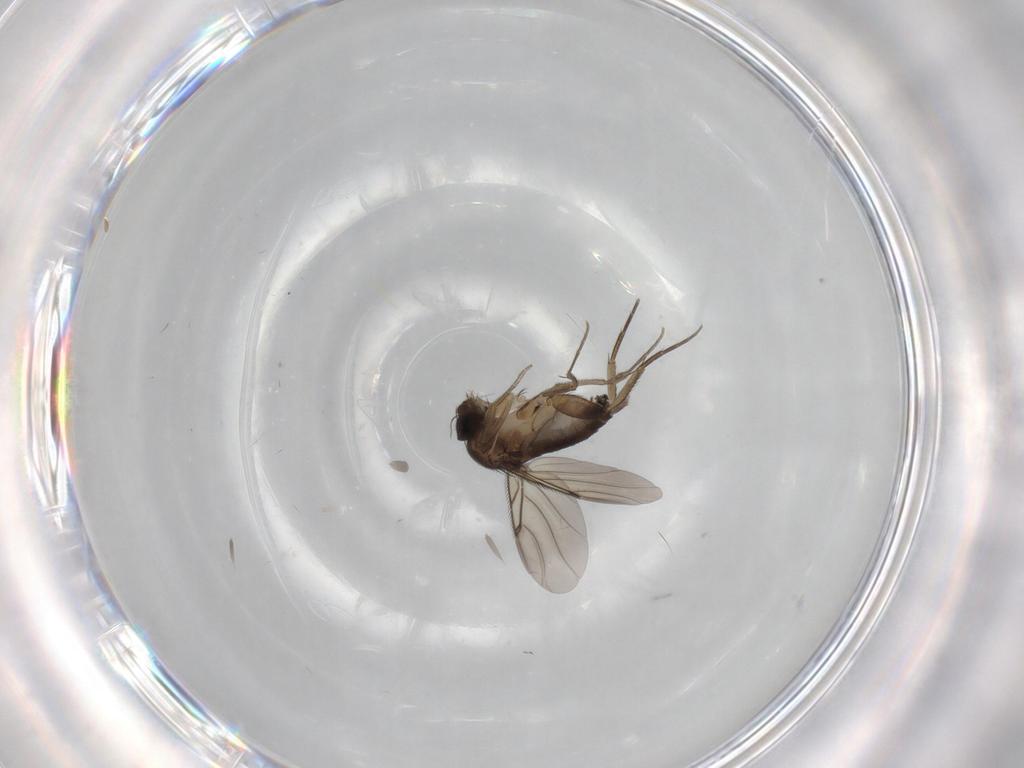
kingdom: Animalia
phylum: Arthropoda
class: Insecta
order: Diptera
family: Phoridae
